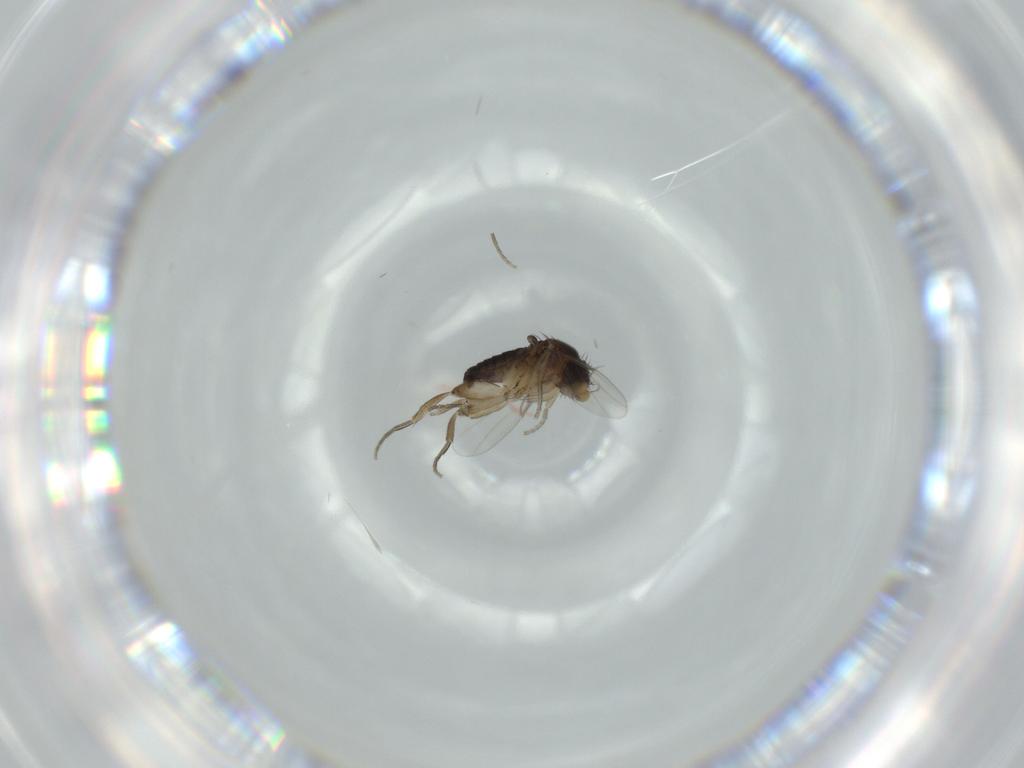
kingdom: Animalia
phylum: Arthropoda
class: Insecta
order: Diptera
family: Phoridae
